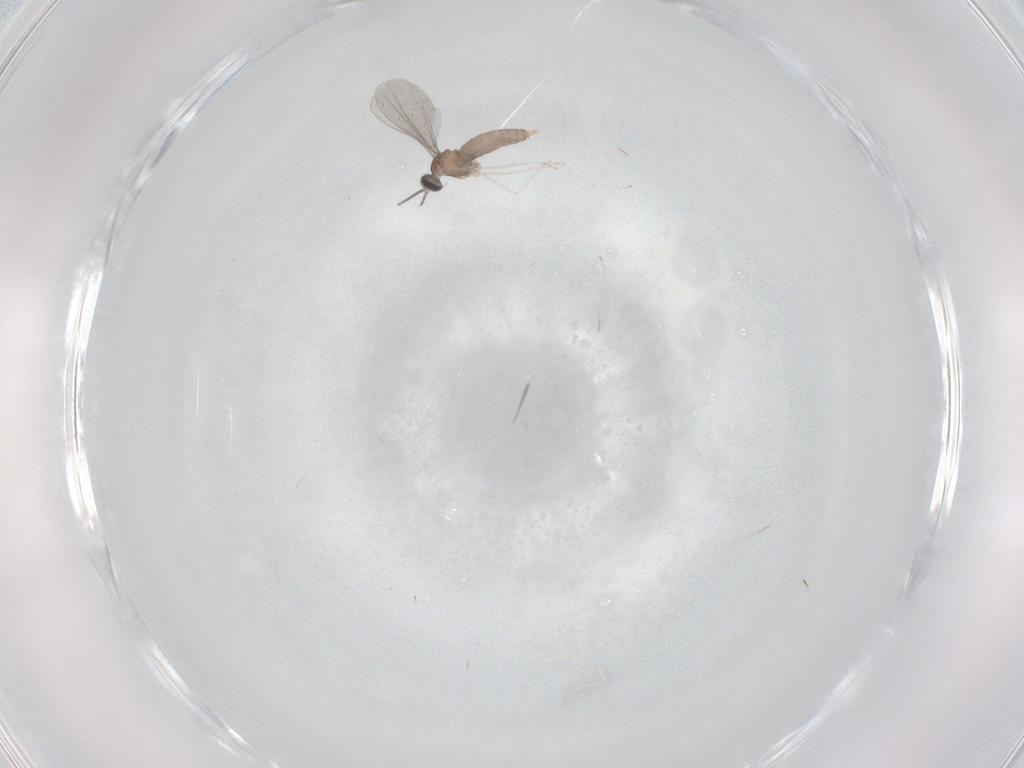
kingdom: Animalia
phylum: Arthropoda
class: Insecta
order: Diptera
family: Cecidomyiidae
